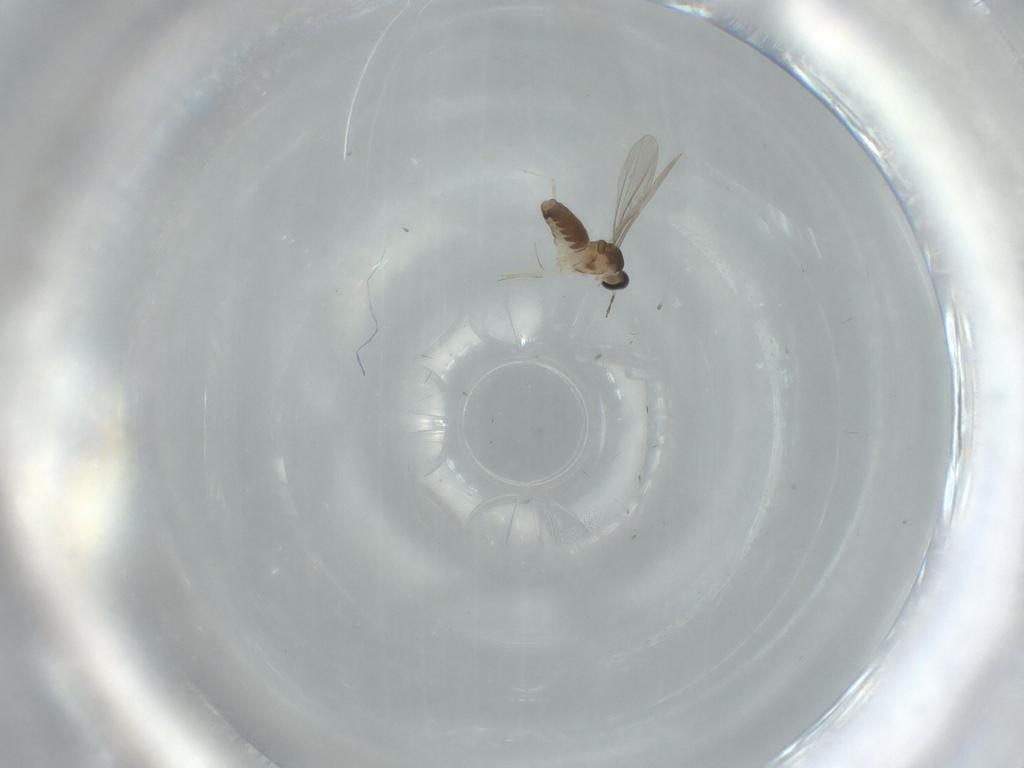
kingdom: Animalia
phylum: Arthropoda
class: Insecta
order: Diptera
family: Cecidomyiidae
